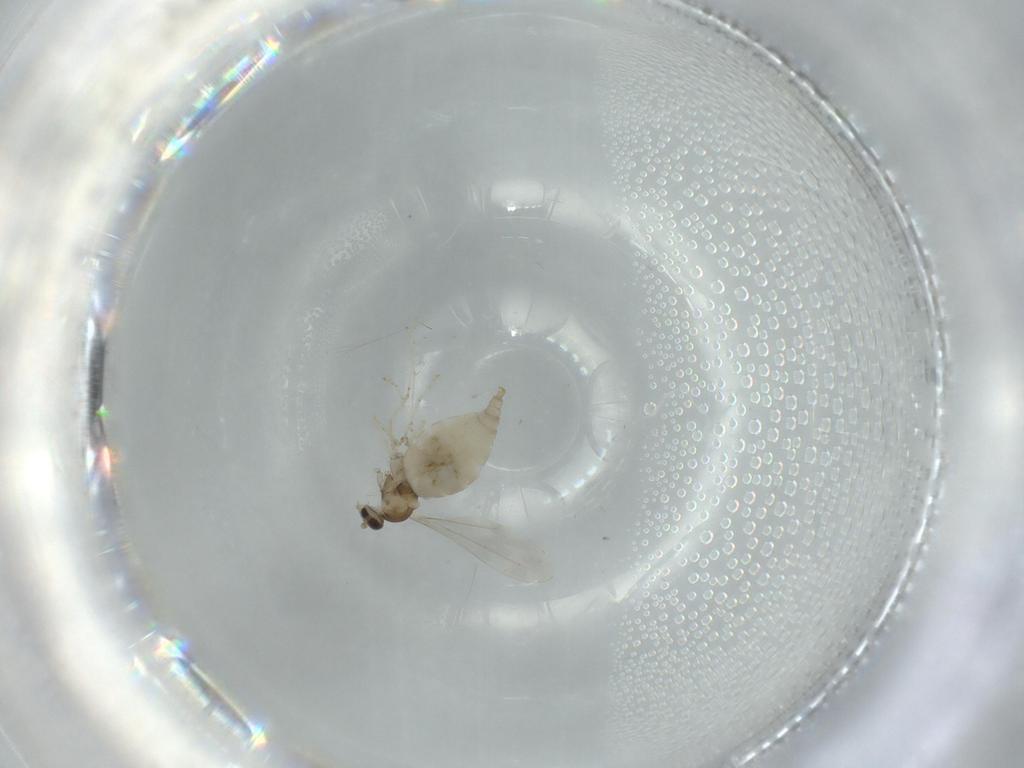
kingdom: Animalia
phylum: Arthropoda
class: Insecta
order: Diptera
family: Cecidomyiidae
